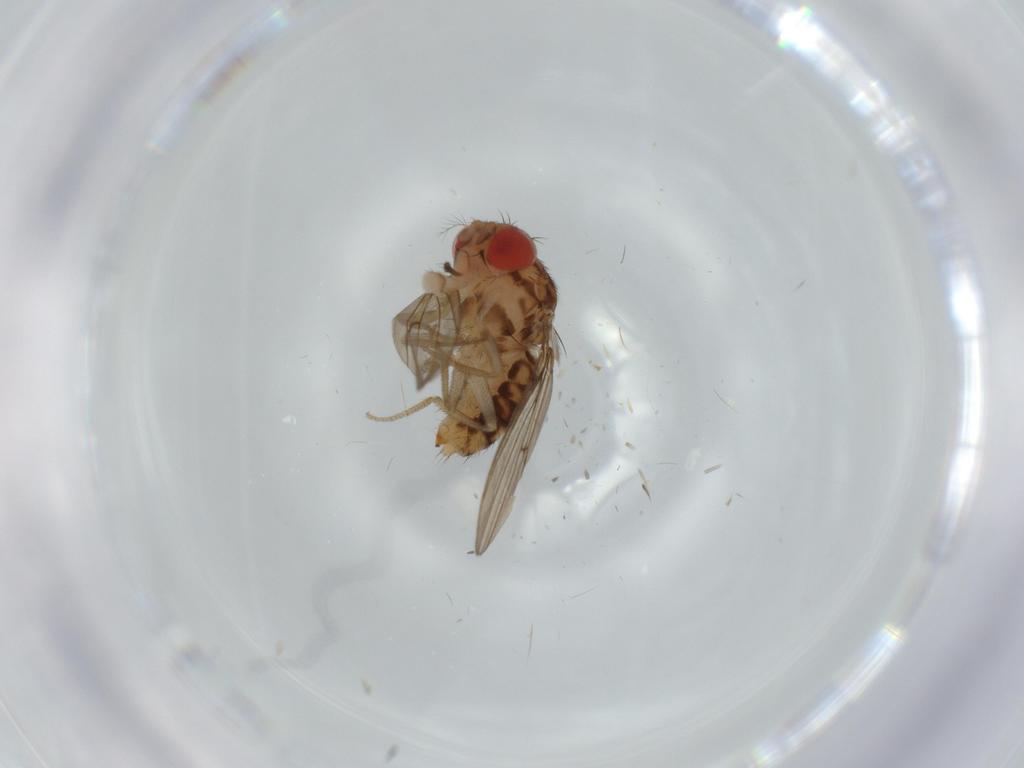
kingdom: Animalia
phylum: Arthropoda
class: Insecta
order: Diptera
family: Drosophilidae
